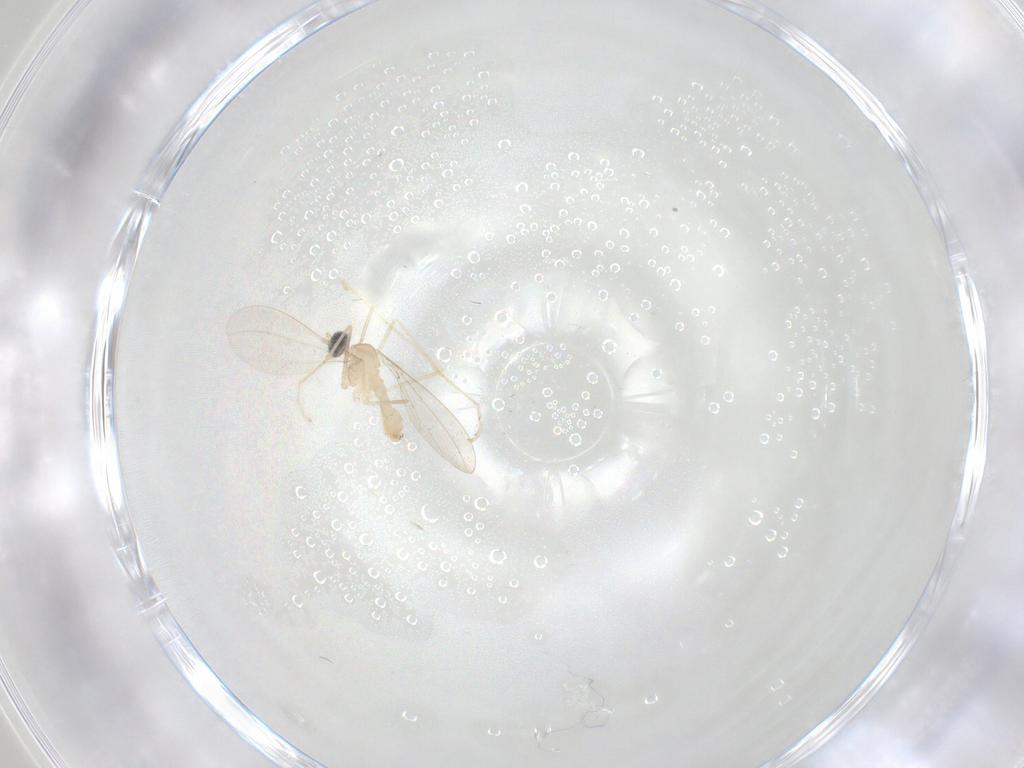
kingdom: Animalia
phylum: Arthropoda
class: Insecta
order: Diptera
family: Cecidomyiidae
